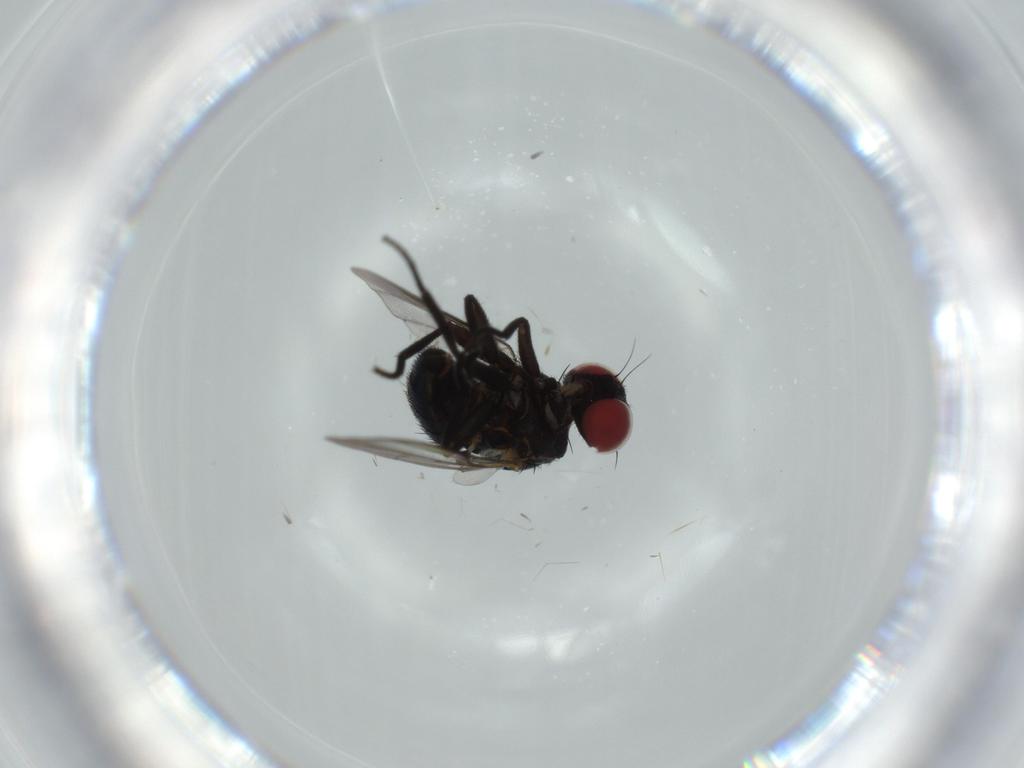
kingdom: Animalia
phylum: Arthropoda
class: Insecta
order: Diptera
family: Agromyzidae
